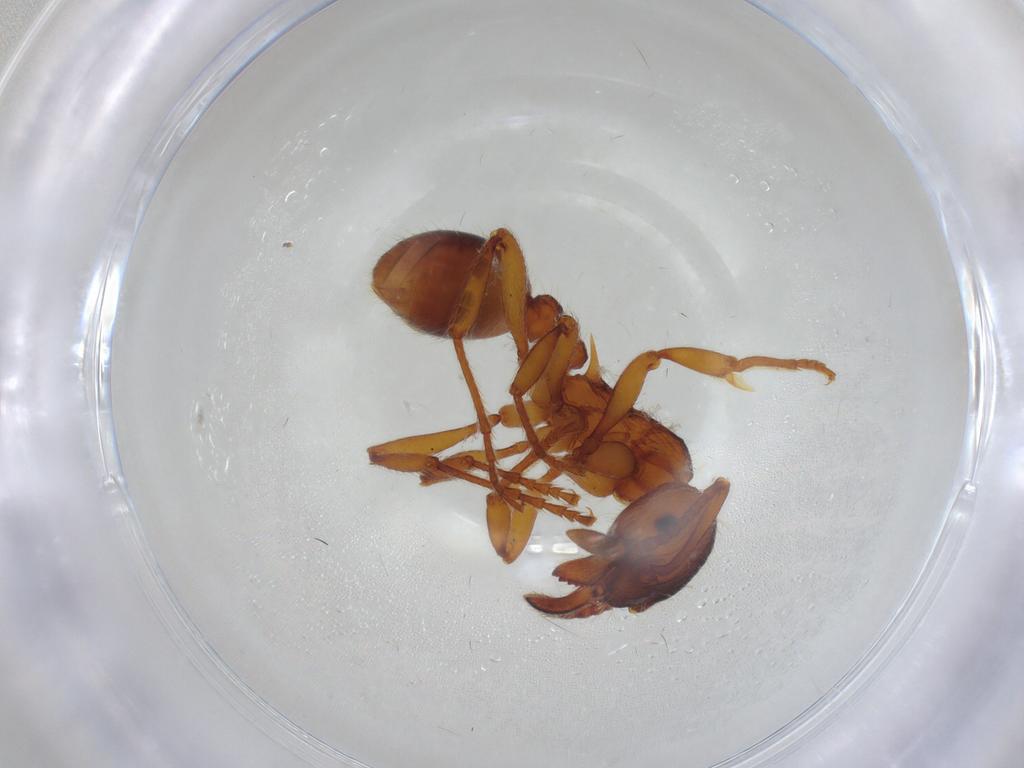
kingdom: Animalia
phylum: Arthropoda
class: Insecta
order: Hymenoptera
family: Formicidae
